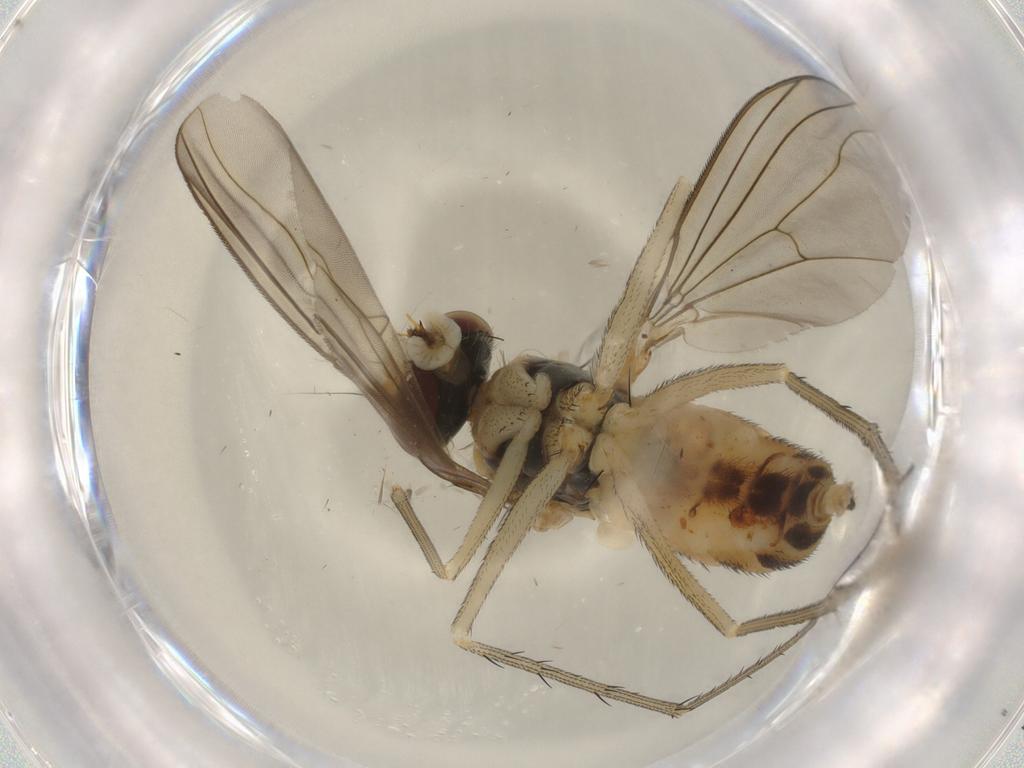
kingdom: Animalia
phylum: Arthropoda
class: Insecta
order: Diptera
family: Dolichopodidae
